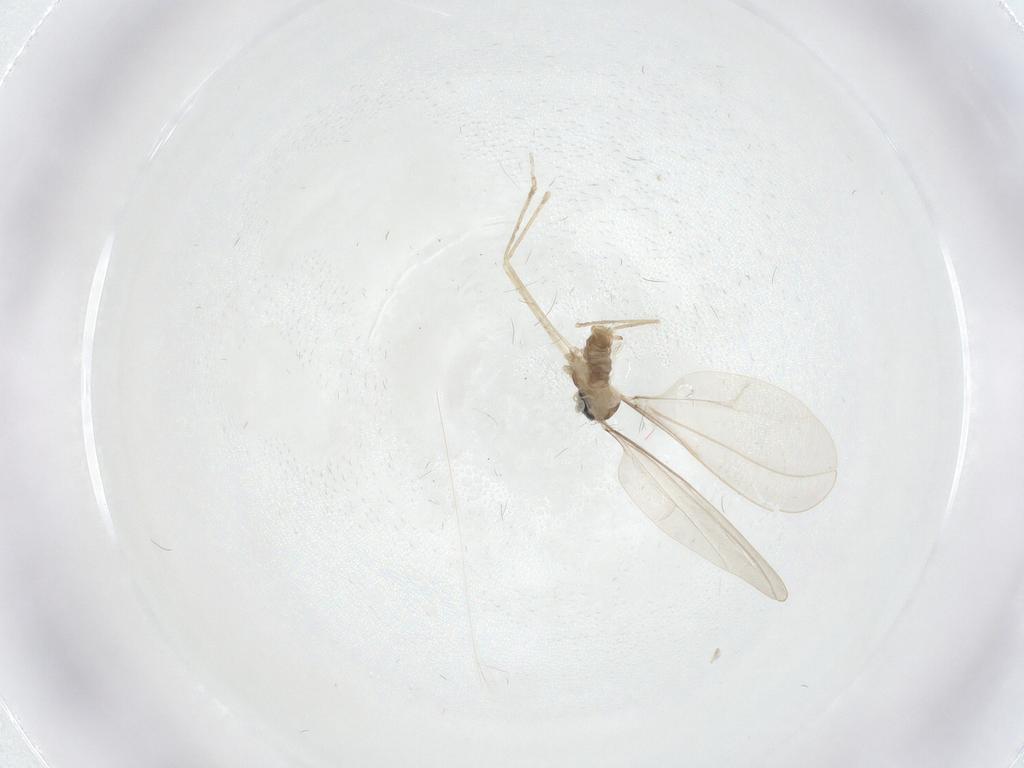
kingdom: Animalia
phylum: Arthropoda
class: Insecta
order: Diptera
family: Cecidomyiidae
